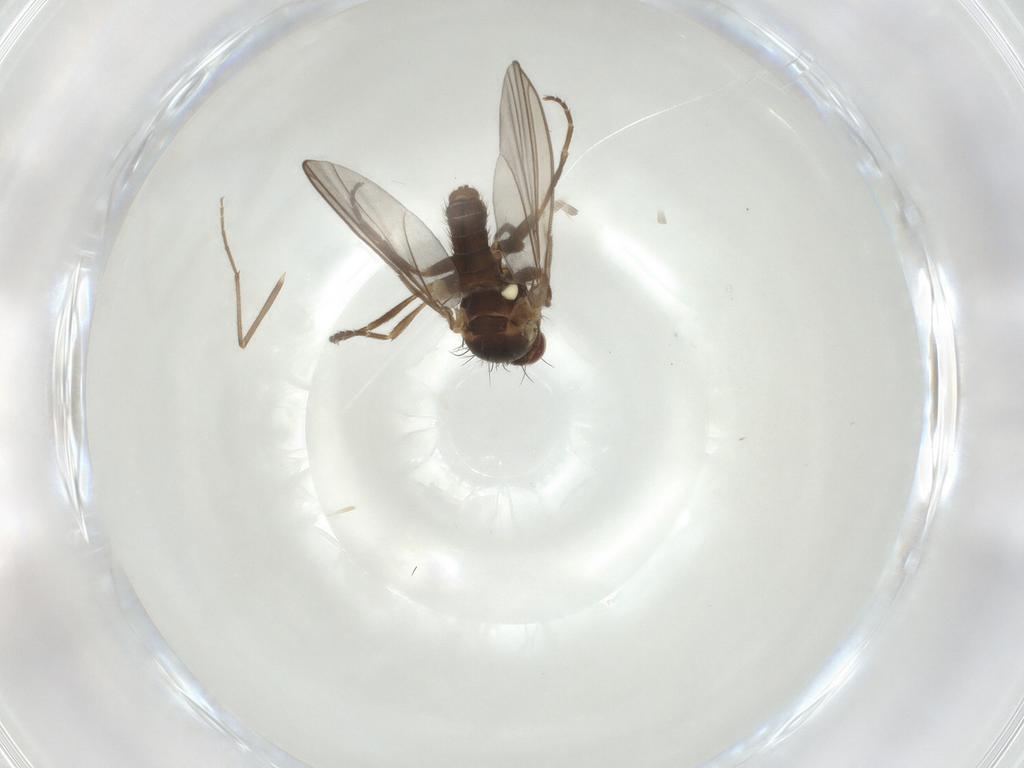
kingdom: Animalia
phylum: Arthropoda
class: Insecta
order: Diptera
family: Agromyzidae
